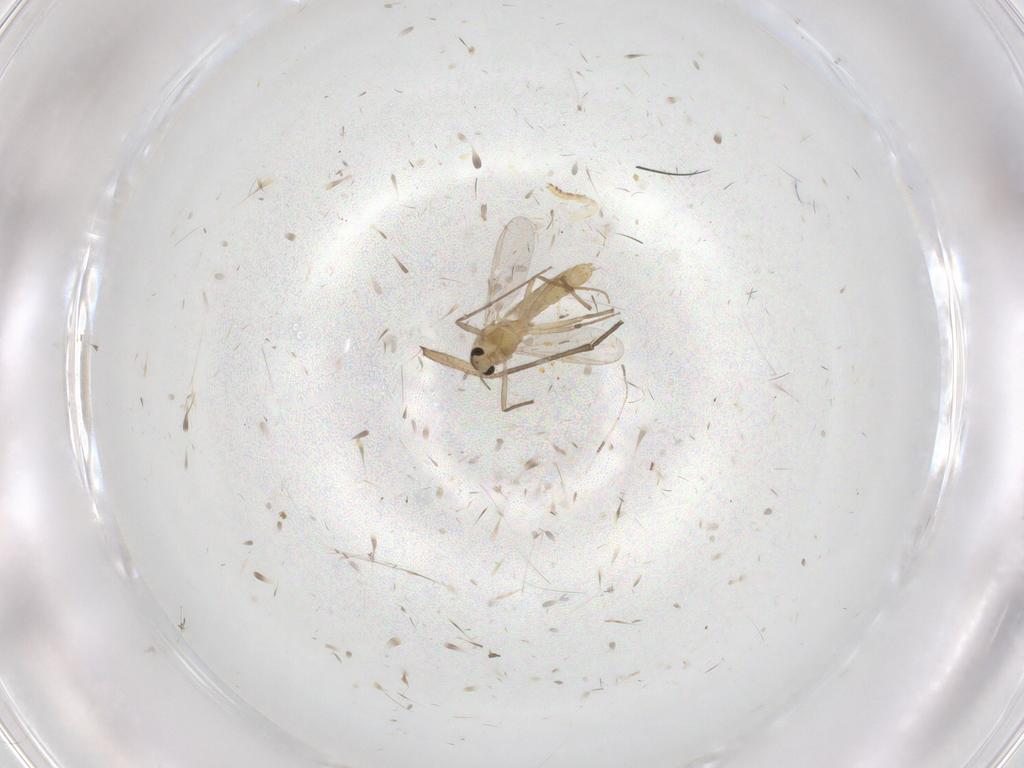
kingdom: Animalia
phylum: Arthropoda
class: Insecta
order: Diptera
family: Chironomidae
